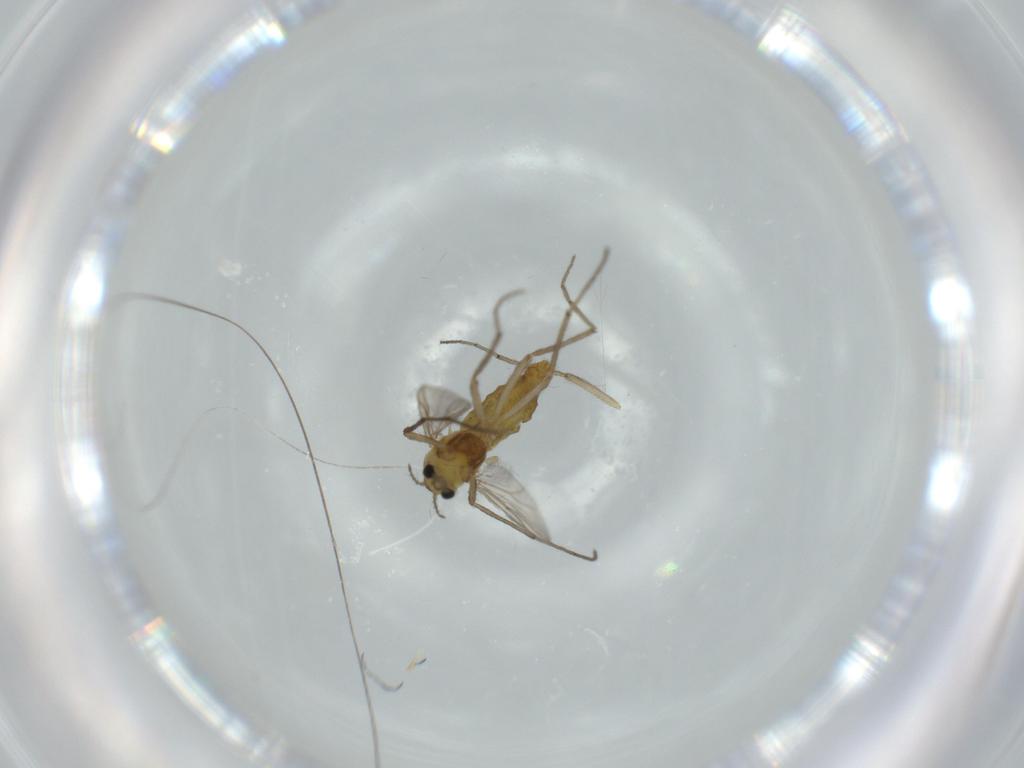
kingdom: Animalia
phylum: Arthropoda
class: Insecta
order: Diptera
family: Chironomidae
